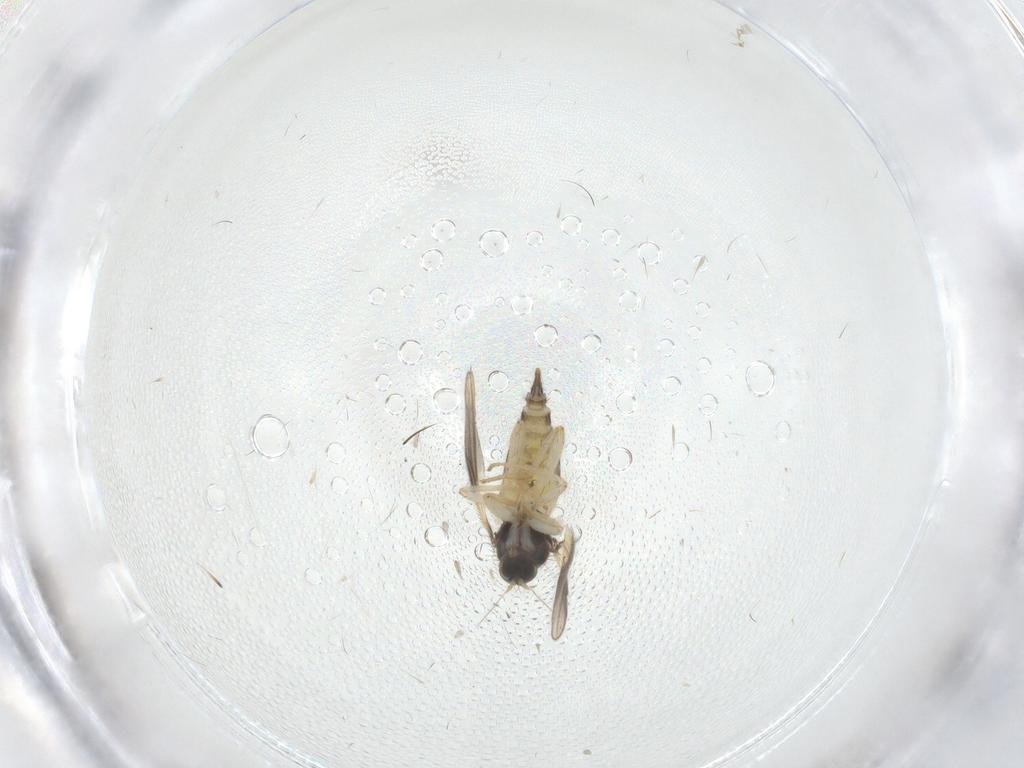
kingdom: Animalia
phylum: Arthropoda
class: Insecta
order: Diptera
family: Hybotidae
